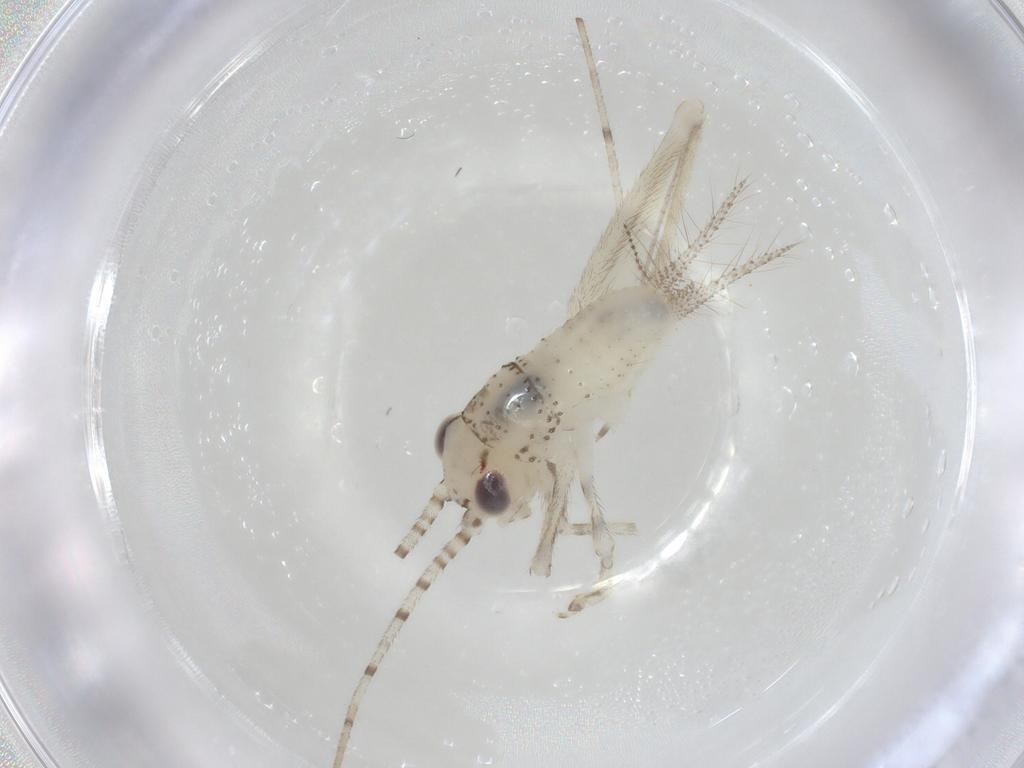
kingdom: Animalia
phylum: Arthropoda
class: Insecta
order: Orthoptera
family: Trigonidiidae
